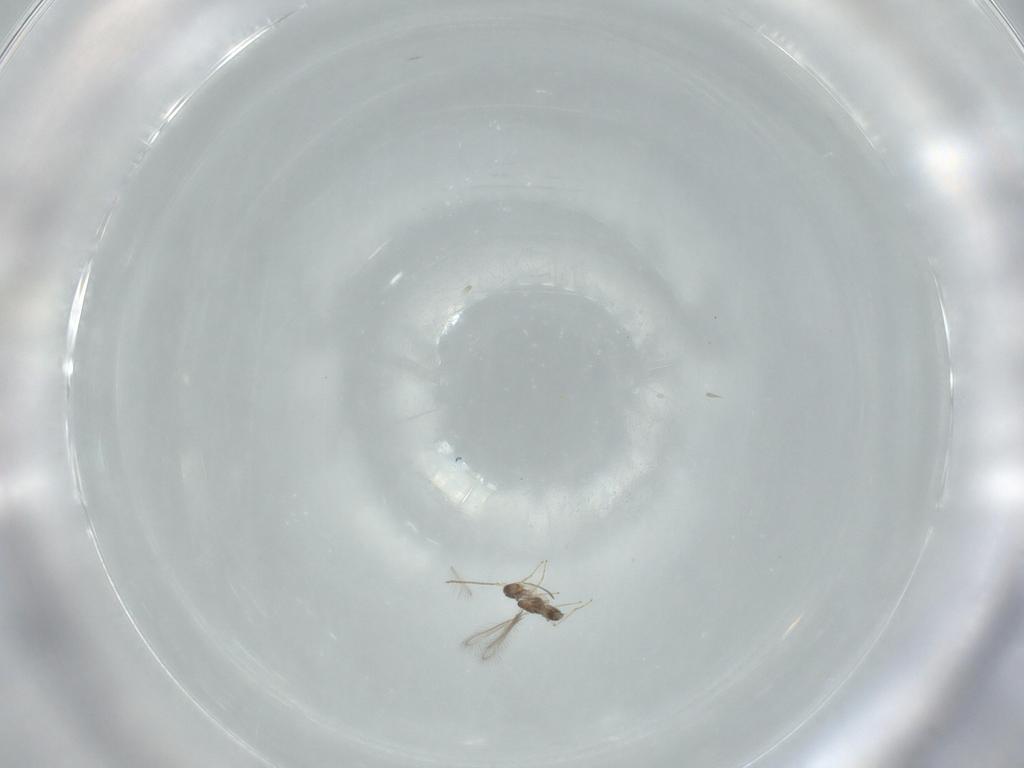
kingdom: Animalia
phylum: Arthropoda
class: Insecta
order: Hymenoptera
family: Mymaridae
